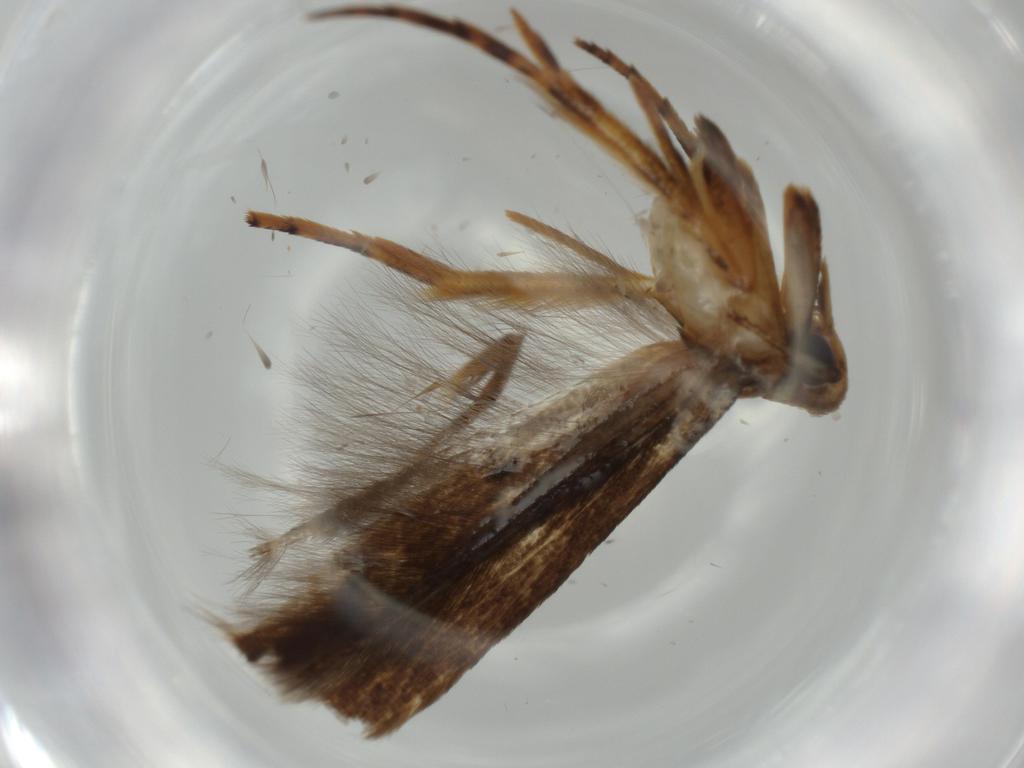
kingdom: Animalia
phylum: Arthropoda
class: Insecta
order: Lepidoptera
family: Heliodinidae
